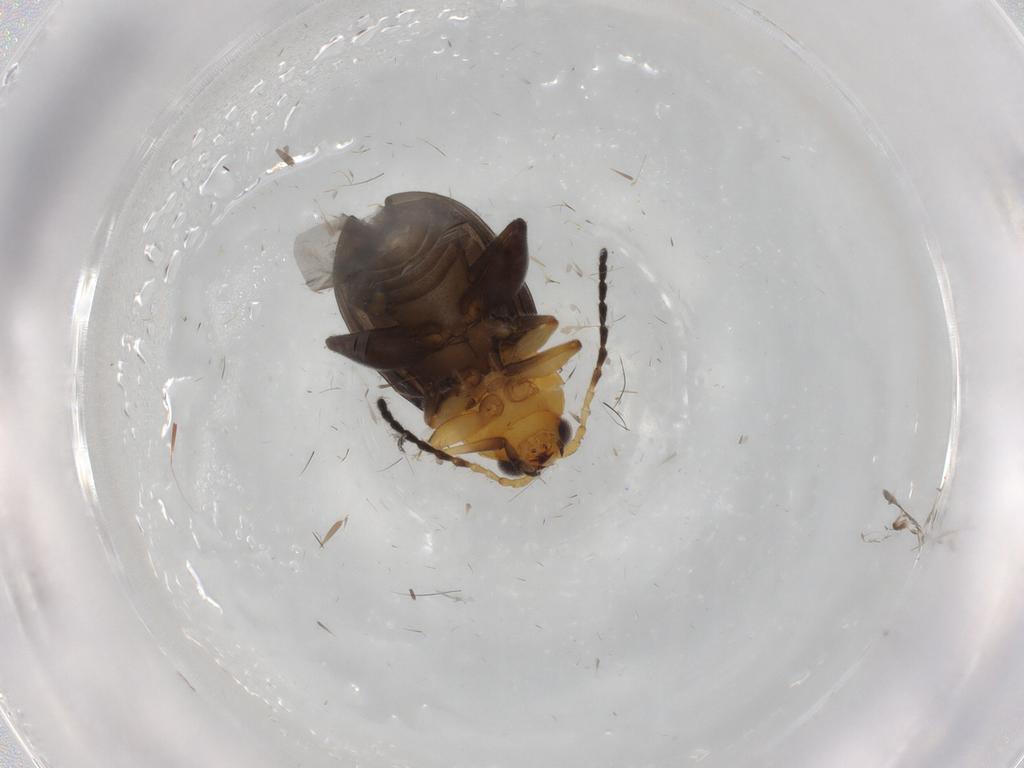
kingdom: Animalia
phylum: Arthropoda
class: Insecta
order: Coleoptera
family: Chrysomelidae
